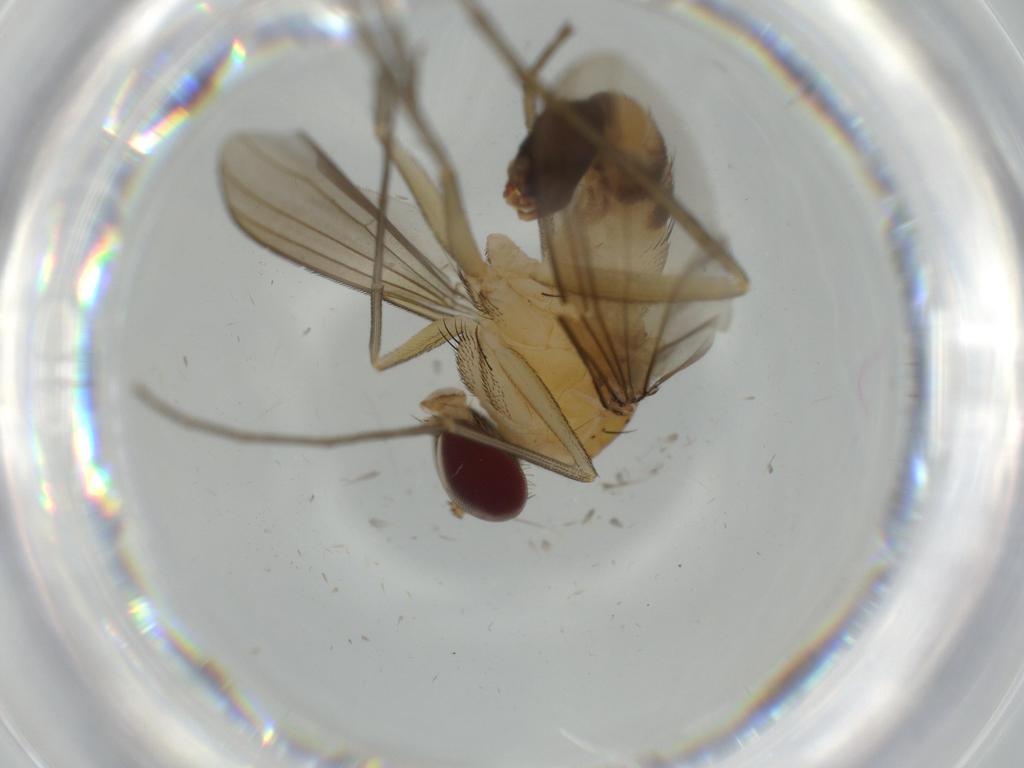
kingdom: Animalia
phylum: Arthropoda
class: Insecta
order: Diptera
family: Dolichopodidae
